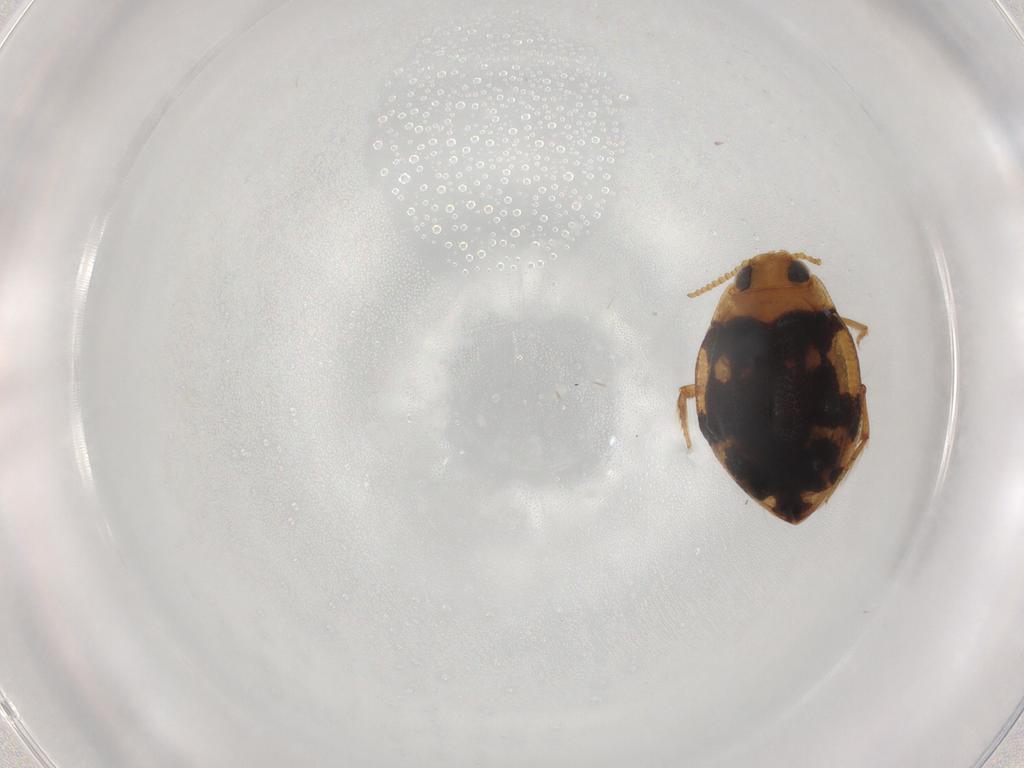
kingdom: Animalia
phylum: Arthropoda
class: Insecta
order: Coleoptera
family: Dytiscidae
